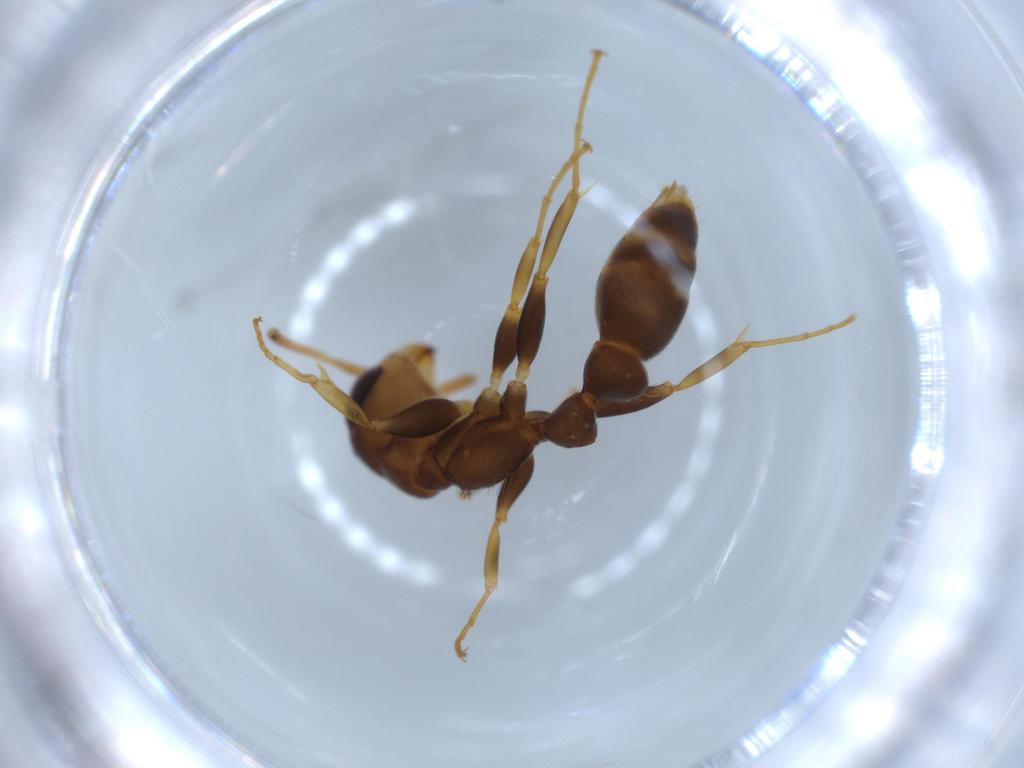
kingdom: Animalia
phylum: Arthropoda
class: Insecta
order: Hymenoptera
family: Formicidae
